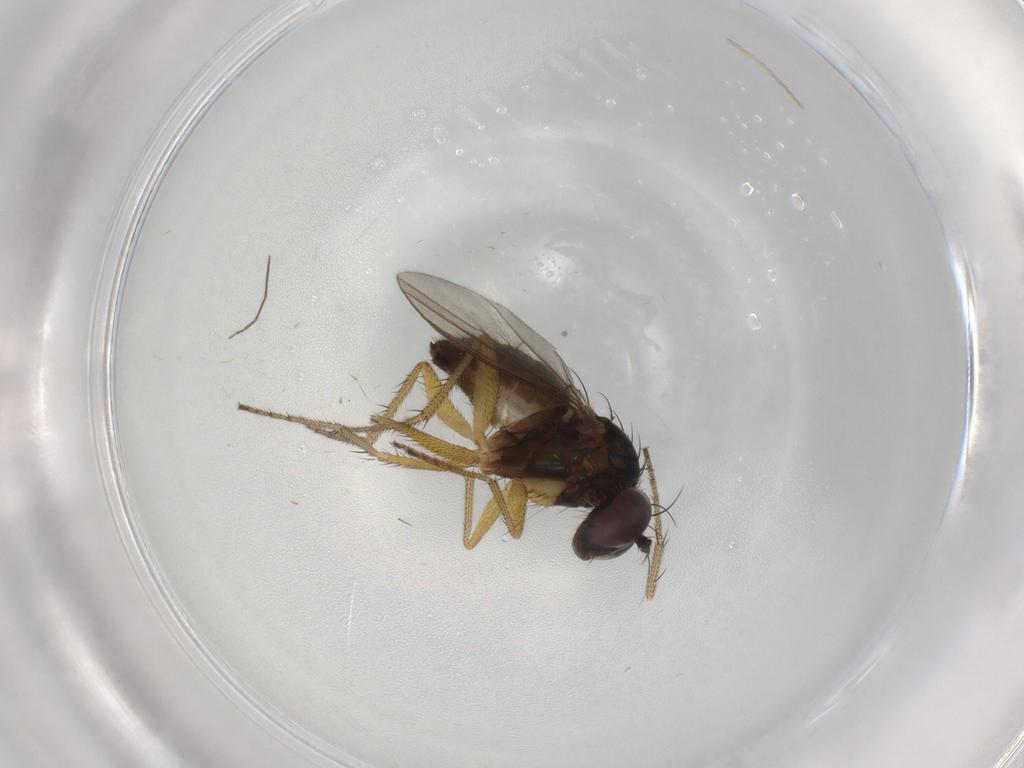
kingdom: Animalia
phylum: Arthropoda
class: Insecta
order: Diptera
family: Dolichopodidae
